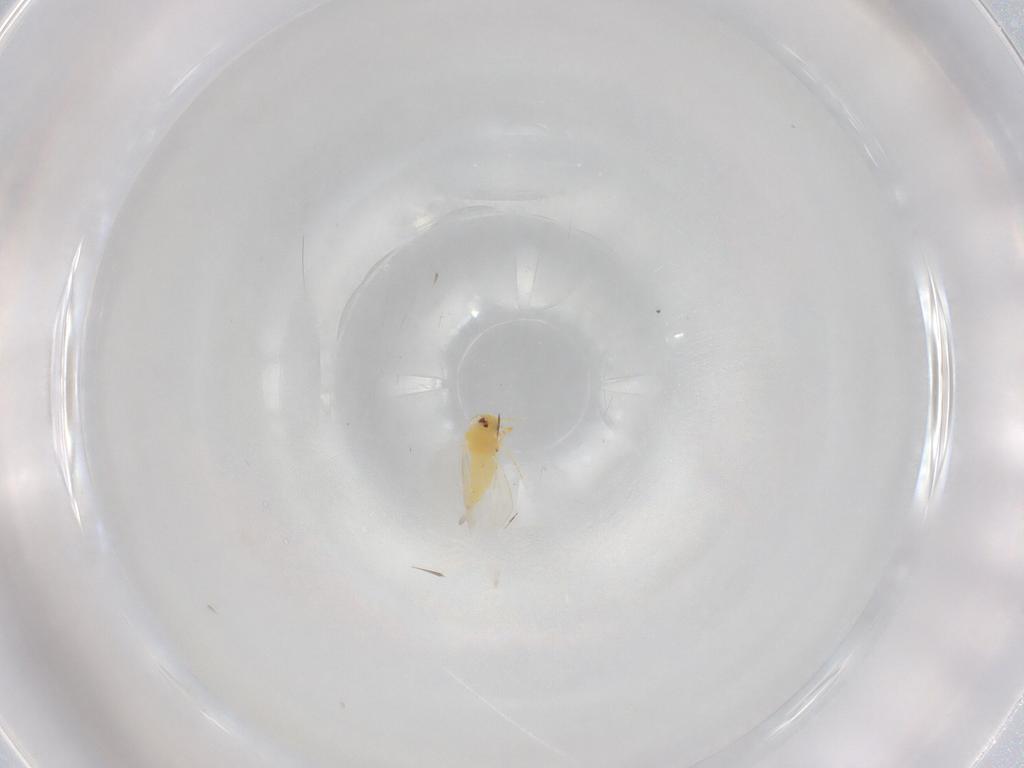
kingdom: Animalia
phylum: Arthropoda
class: Insecta
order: Hemiptera
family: Aleyrodidae
